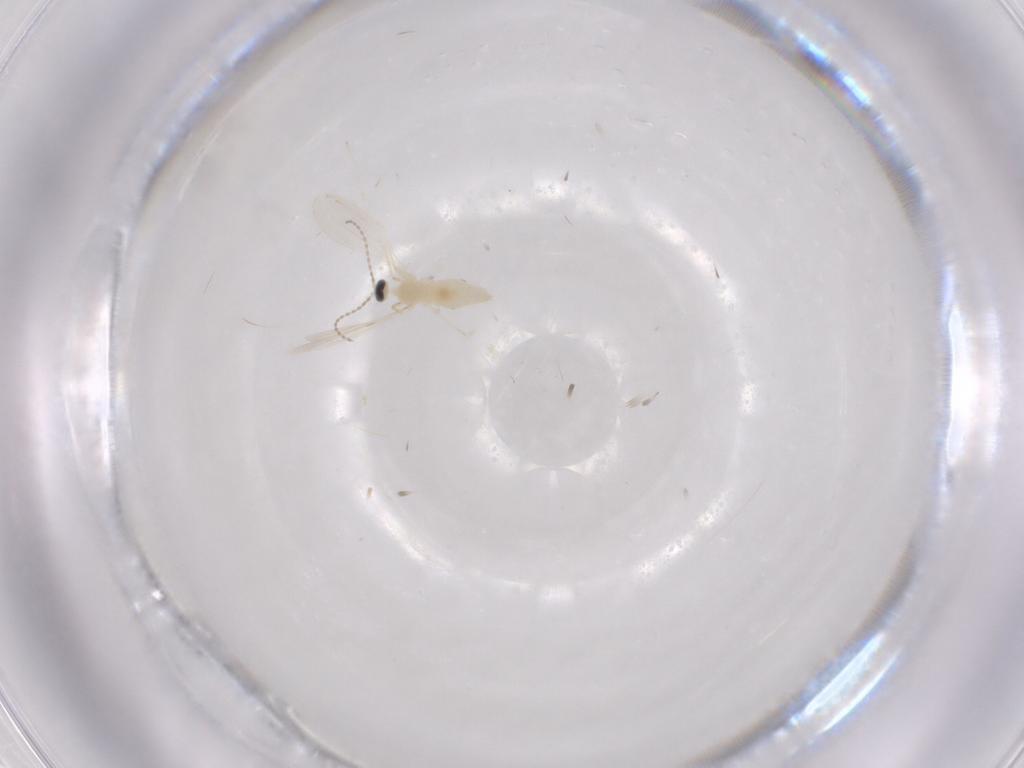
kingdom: Animalia
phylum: Arthropoda
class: Insecta
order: Diptera
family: Cecidomyiidae
